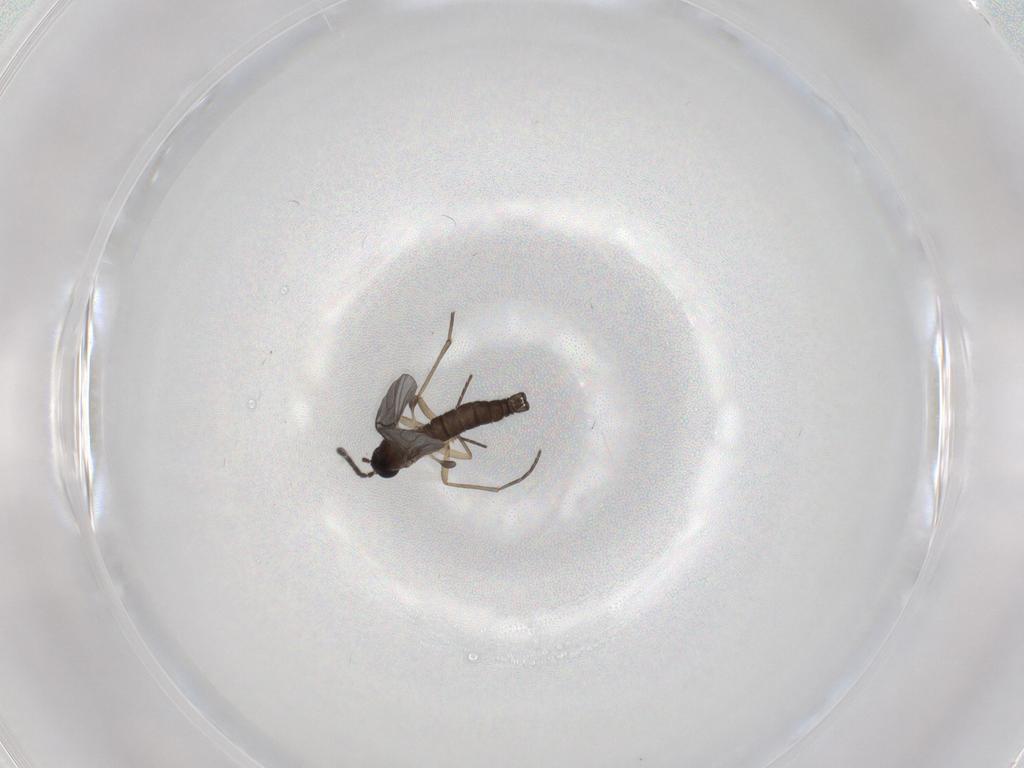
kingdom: Animalia
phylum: Arthropoda
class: Insecta
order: Diptera
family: Sciaridae
